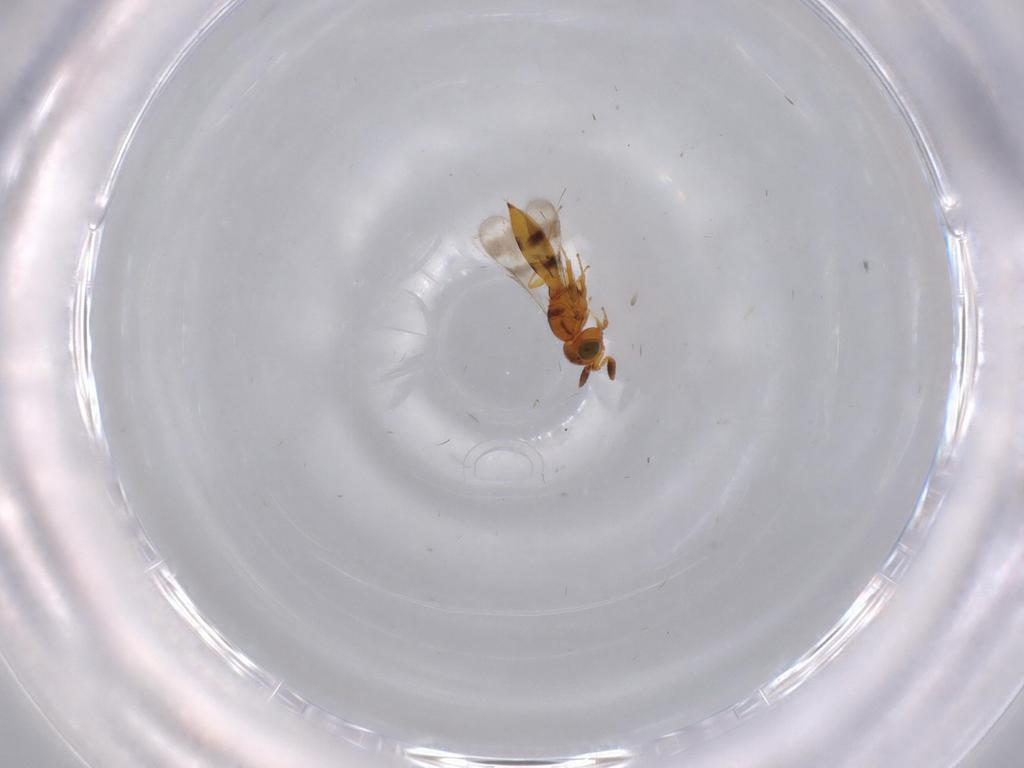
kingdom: Animalia
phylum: Arthropoda
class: Insecta
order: Hymenoptera
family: Scelionidae
